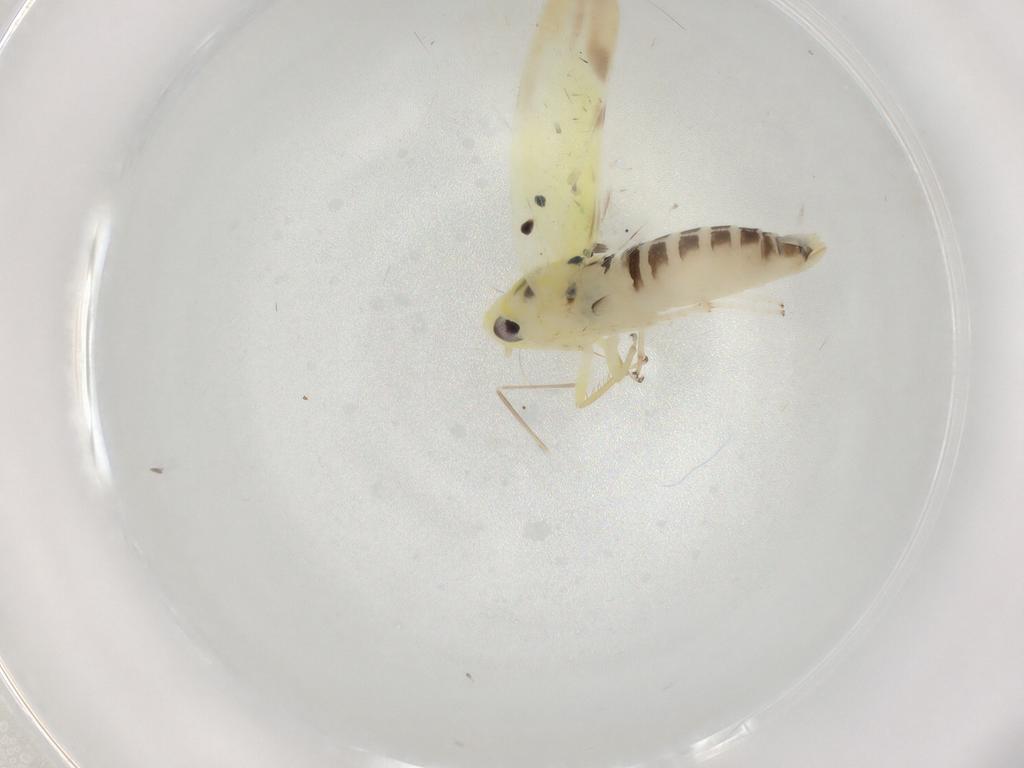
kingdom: Animalia
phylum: Arthropoda
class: Insecta
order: Hemiptera
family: Cicadellidae
